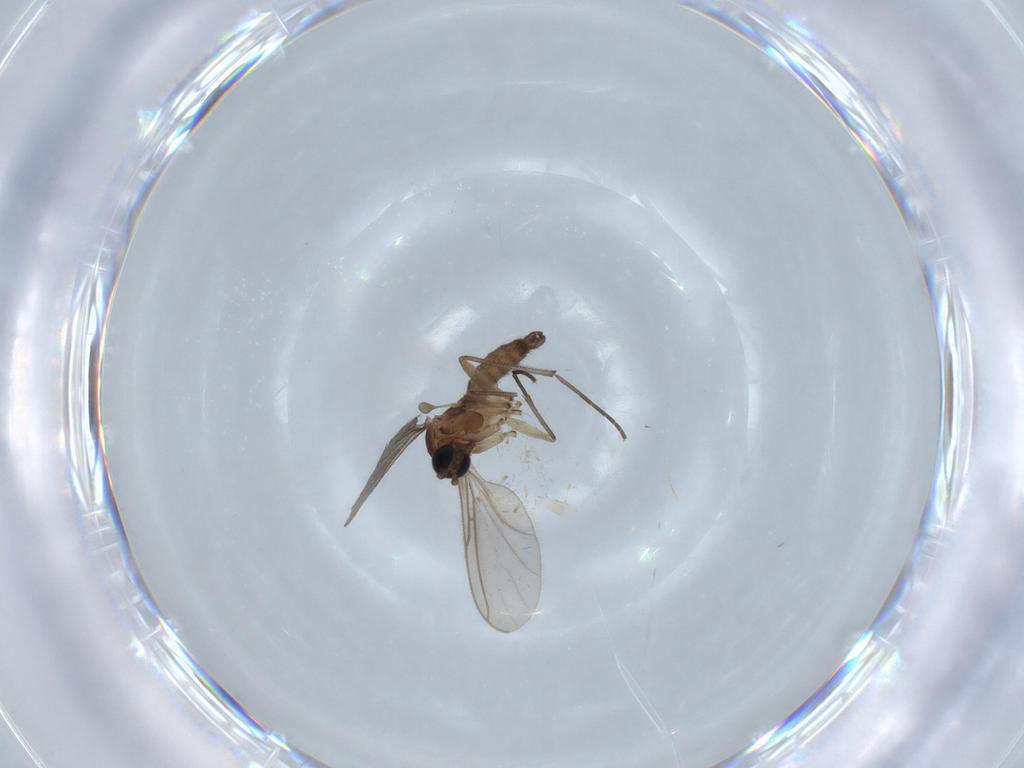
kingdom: Animalia
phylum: Arthropoda
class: Insecta
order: Diptera
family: Sciaridae
